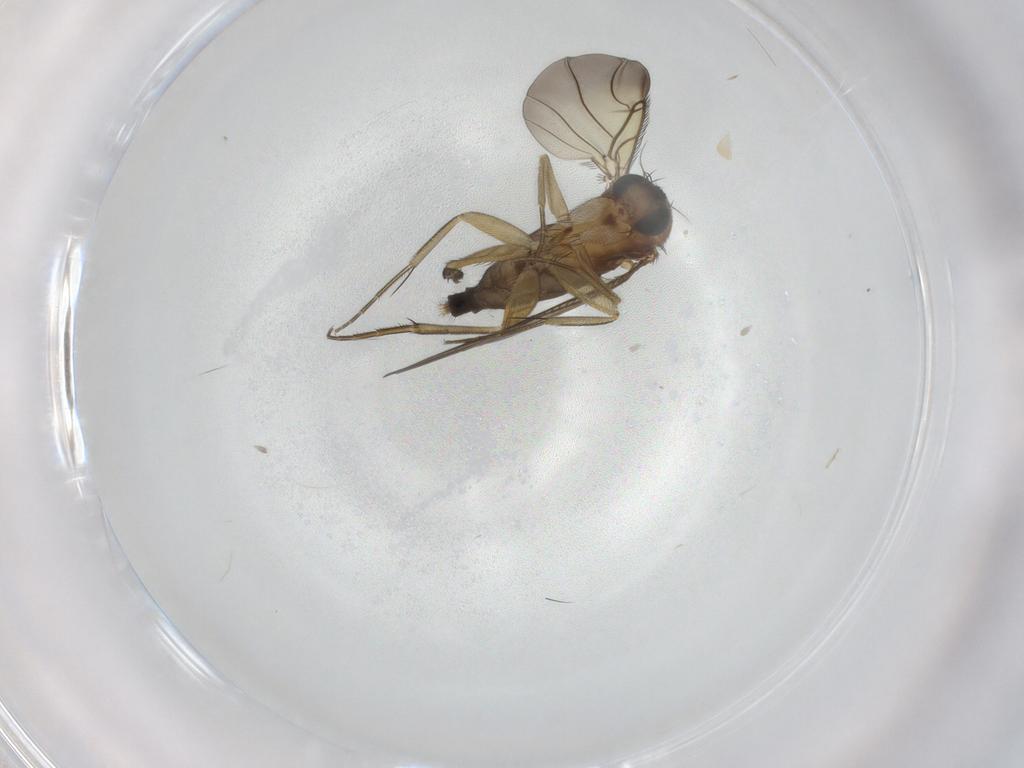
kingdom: Animalia
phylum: Arthropoda
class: Insecta
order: Diptera
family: Phoridae
